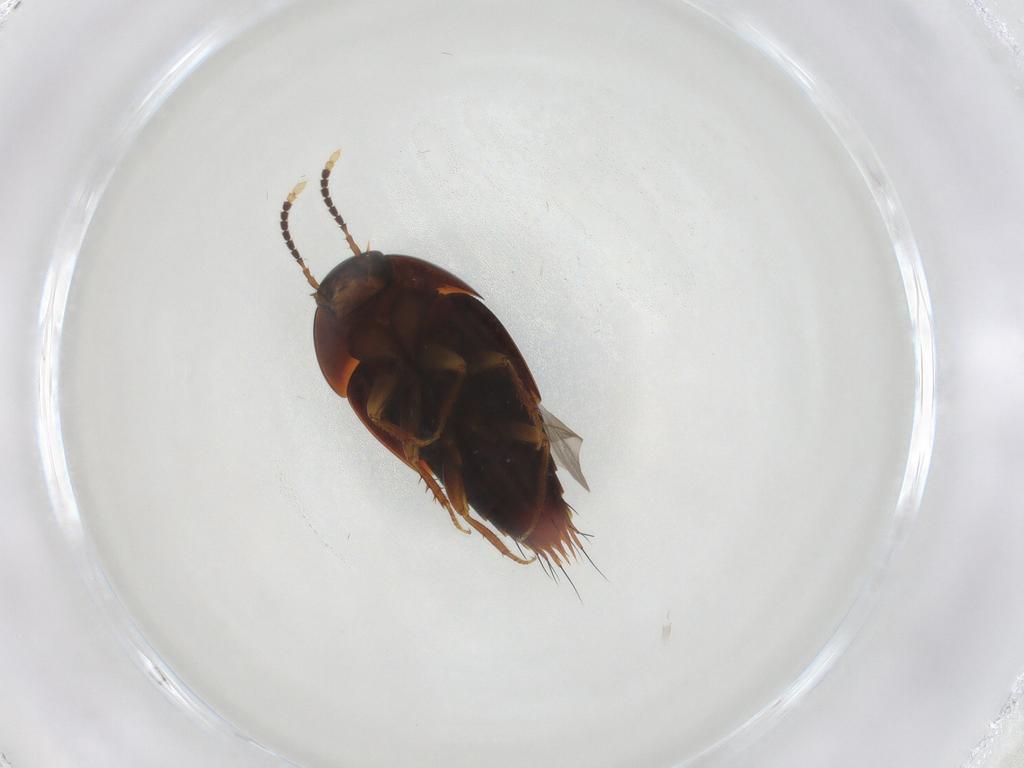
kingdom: Animalia
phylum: Arthropoda
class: Insecta
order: Coleoptera
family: Staphylinidae
